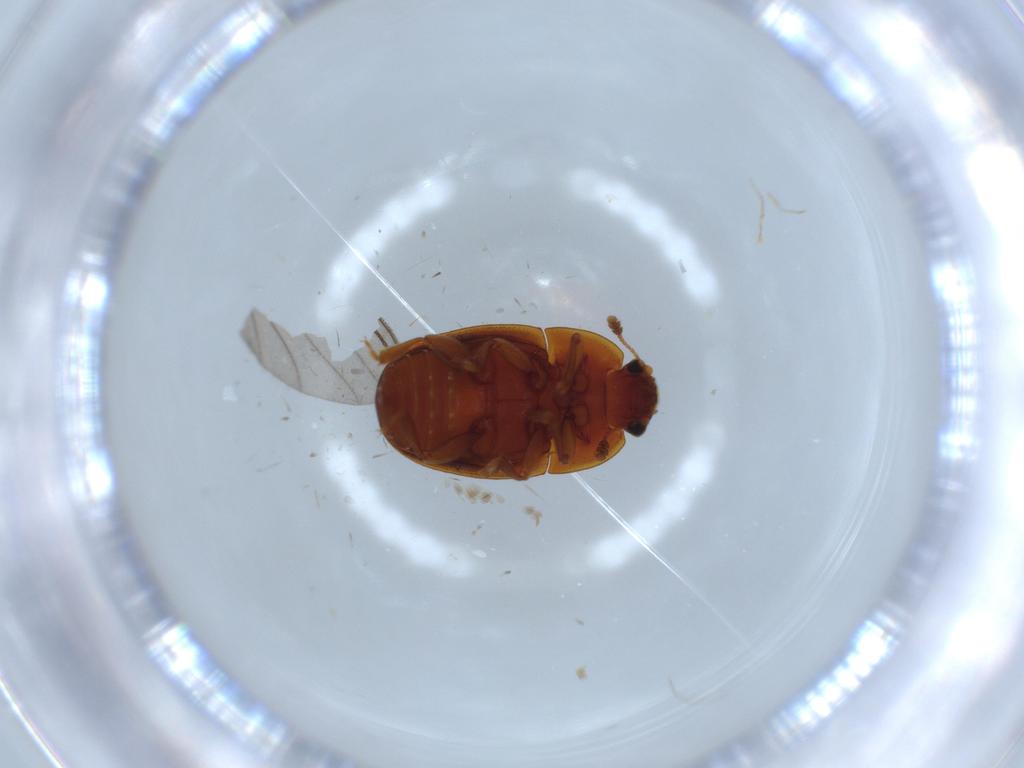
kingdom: Animalia
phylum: Arthropoda
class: Insecta
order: Coleoptera
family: Cantharidae
